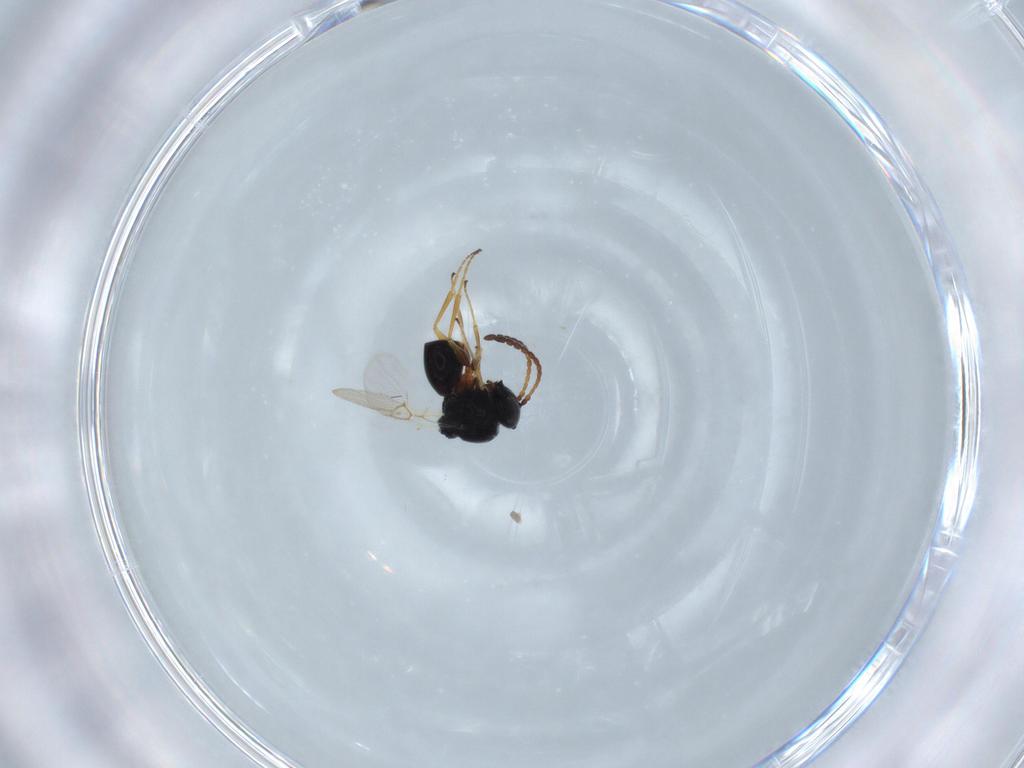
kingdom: Animalia
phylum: Arthropoda
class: Insecta
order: Hymenoptera
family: Figitidae
